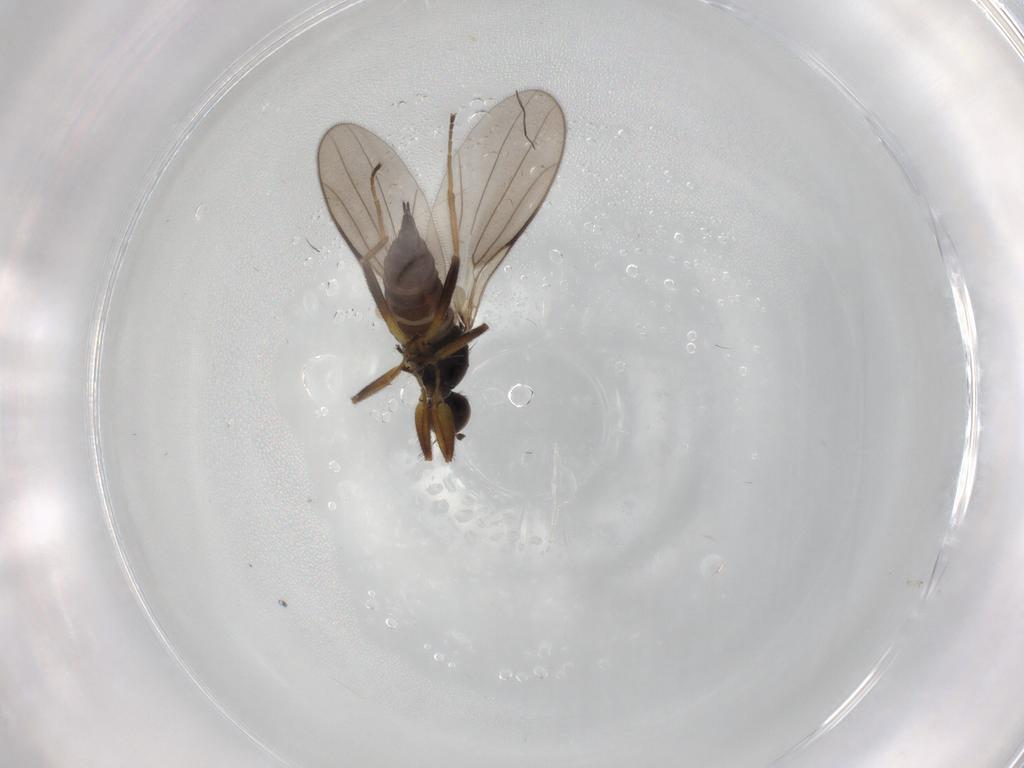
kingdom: Animalia
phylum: Arthropoda
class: Insecta
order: Diptera
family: Hybotidae
